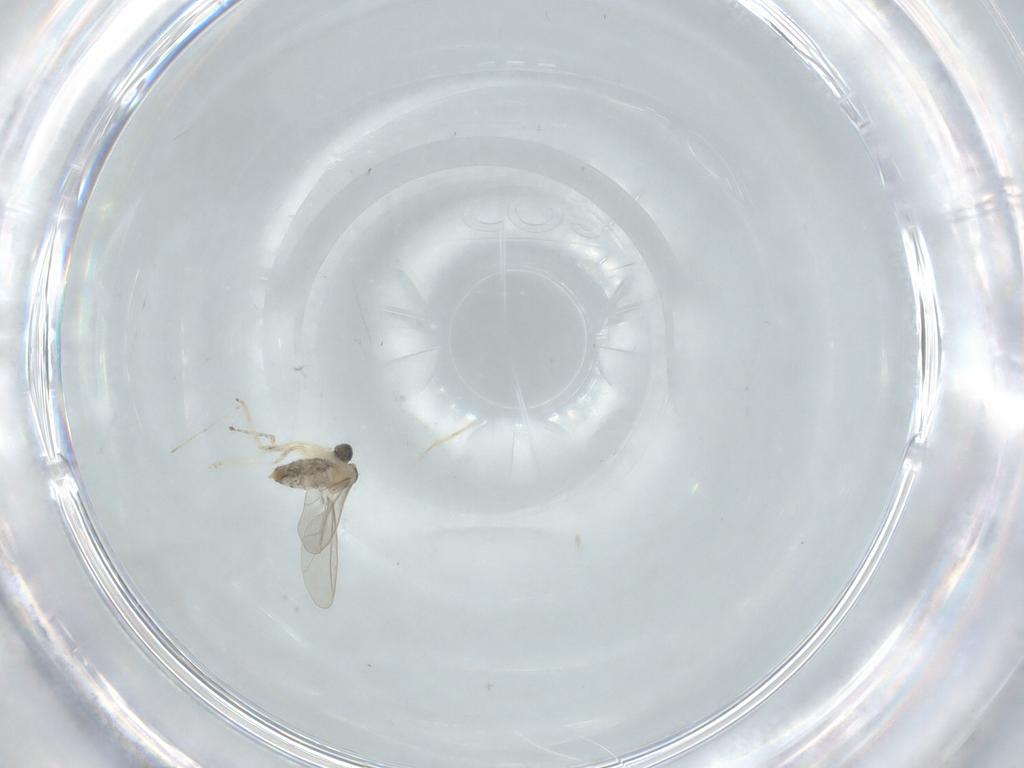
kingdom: Animalia
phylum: Arthropoda
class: Insecta
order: Diptera
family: Cecidomyiidae
